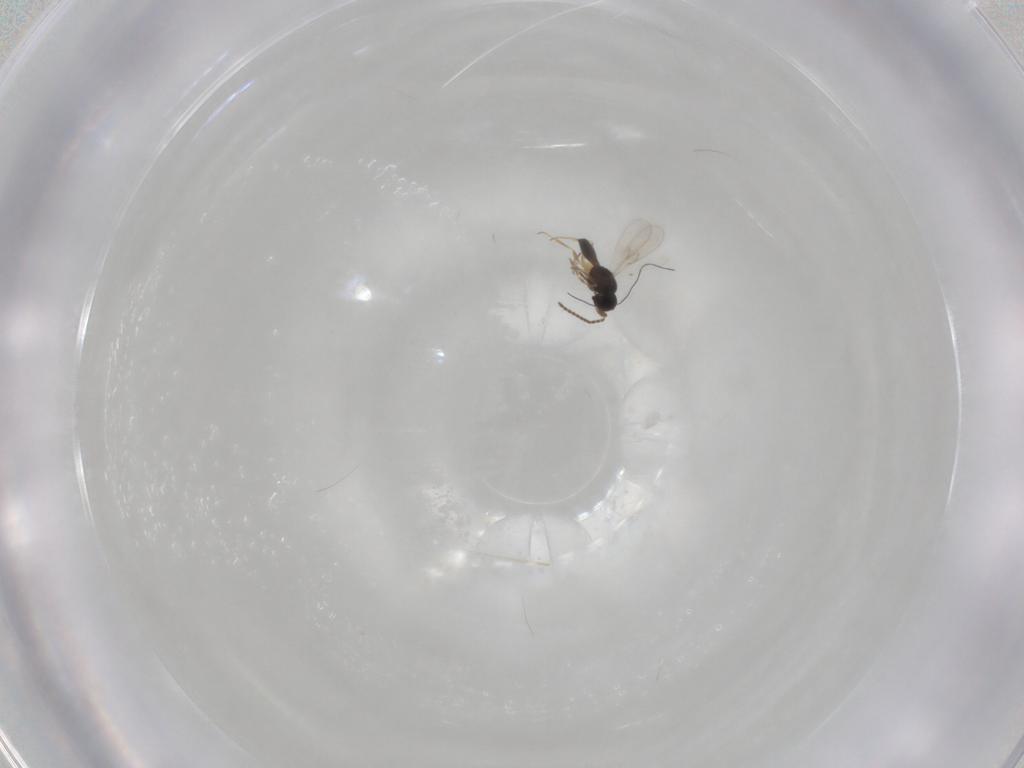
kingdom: Animalia
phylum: Arthropoda
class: Insecta
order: Hymenoptera
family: Scelionidae
